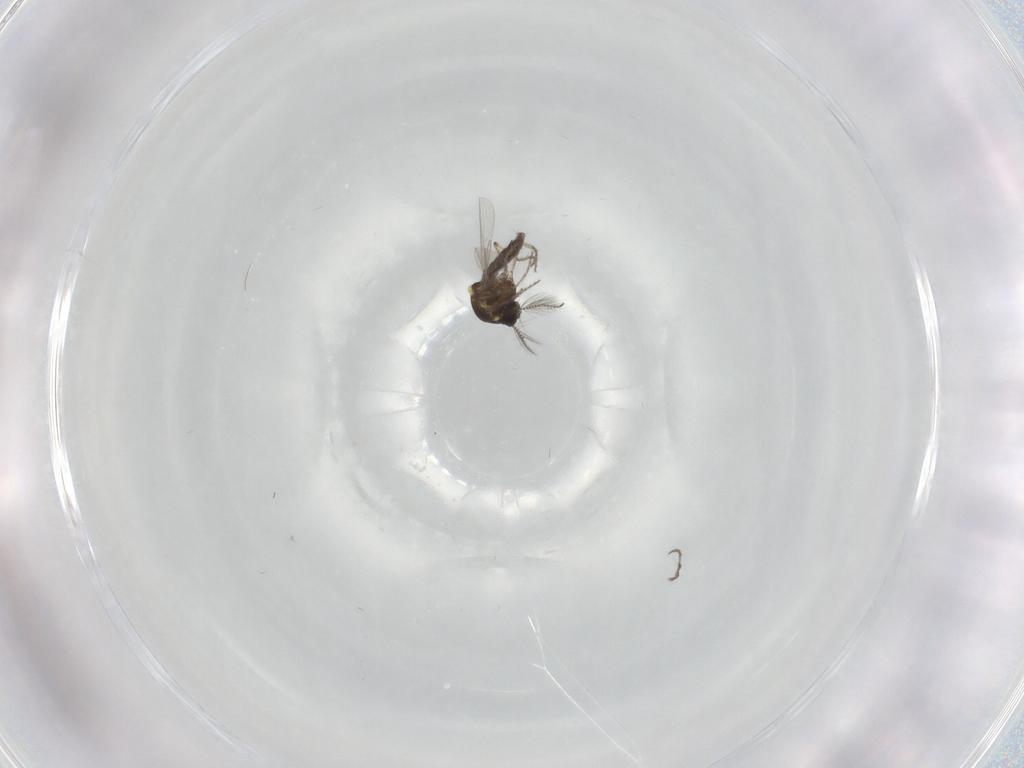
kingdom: Animalia
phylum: Arthropoda
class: Insecta
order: Diptera
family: Ceratopogonidae
